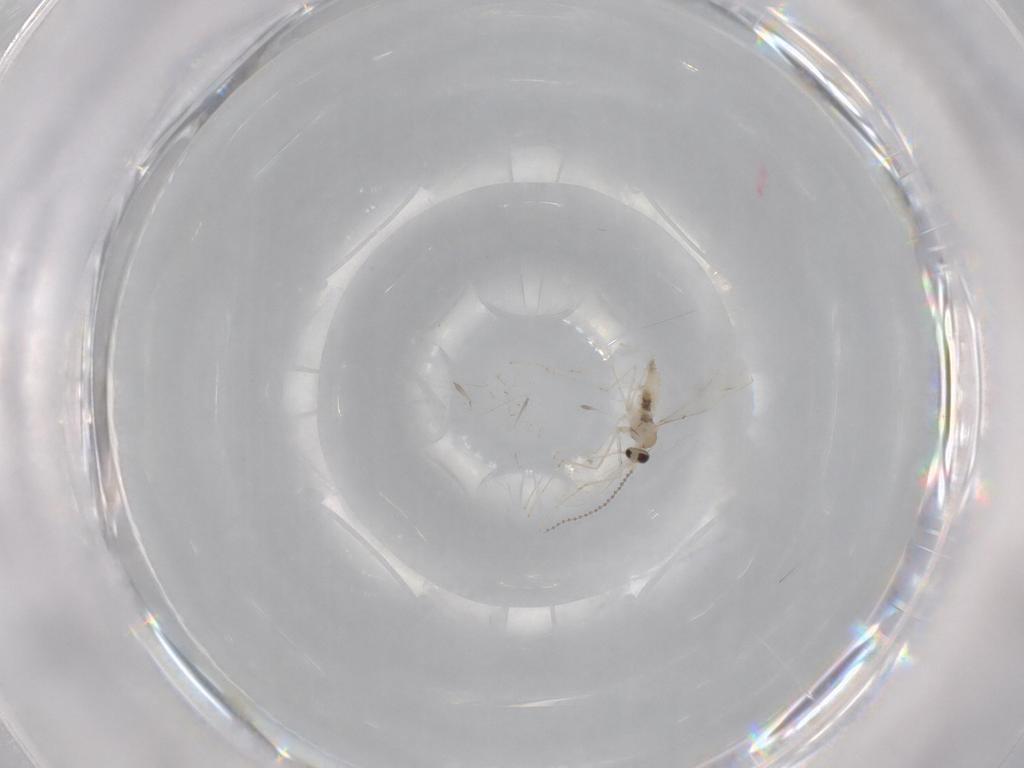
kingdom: Animalia
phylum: Arthropoda
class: Insecta
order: Diptera
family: Cecidomyiidae
